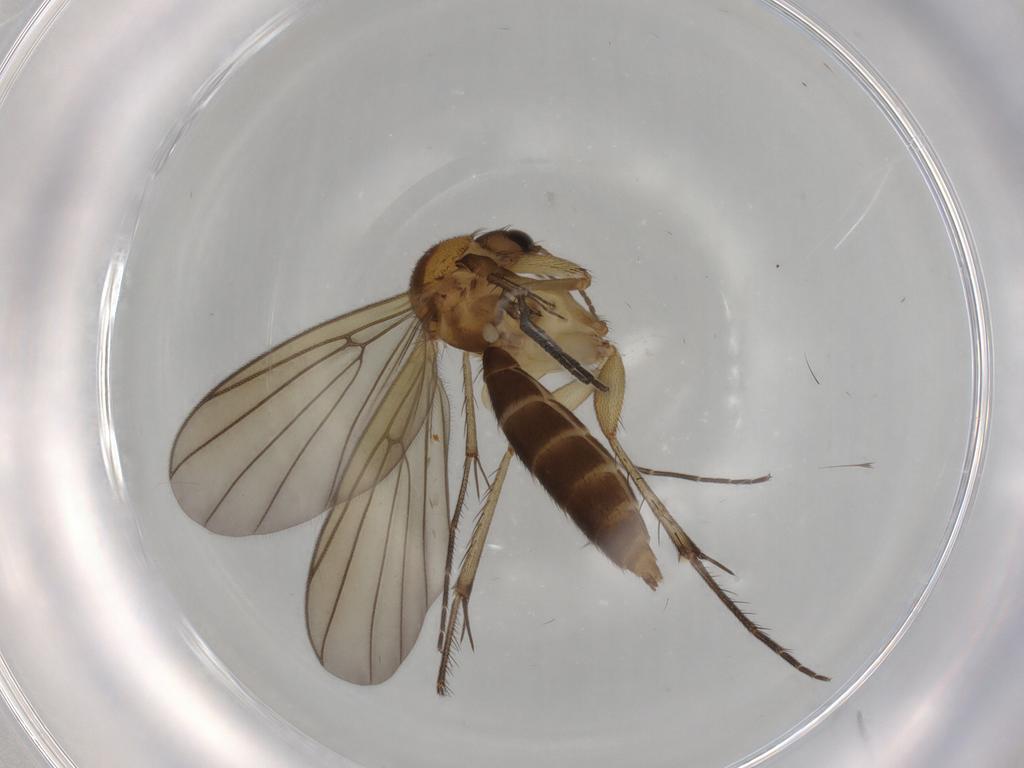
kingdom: Animalia
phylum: Arthropoda
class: Insecta
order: Diptera
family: Mycetophilidae
